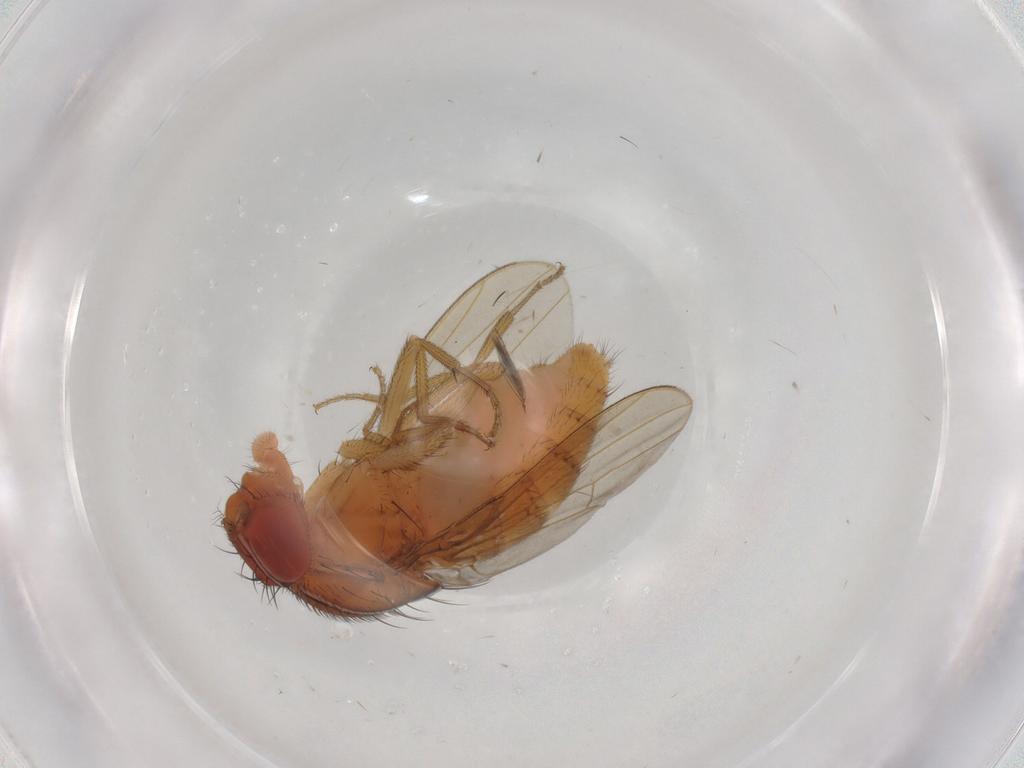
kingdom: Animalia
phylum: Arthropoda
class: Insecta
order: Diptera
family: Drosophilidae
